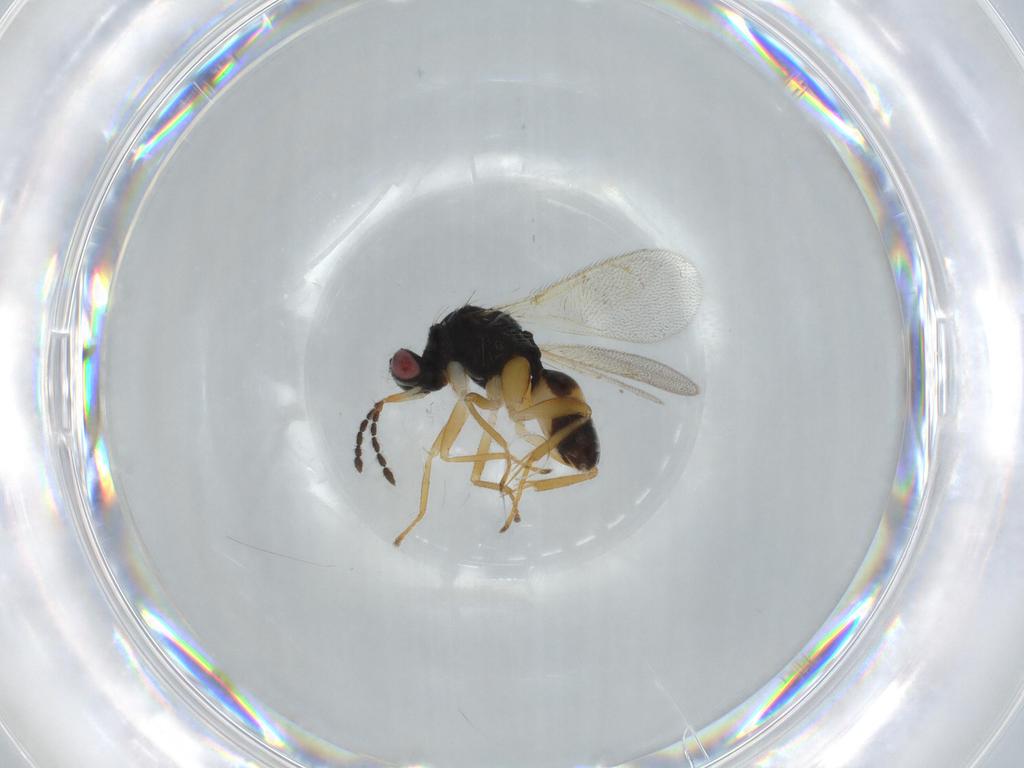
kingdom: Animalia
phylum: Arthropoda
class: Insecta
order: Hymenoptera
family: Eulophidae
